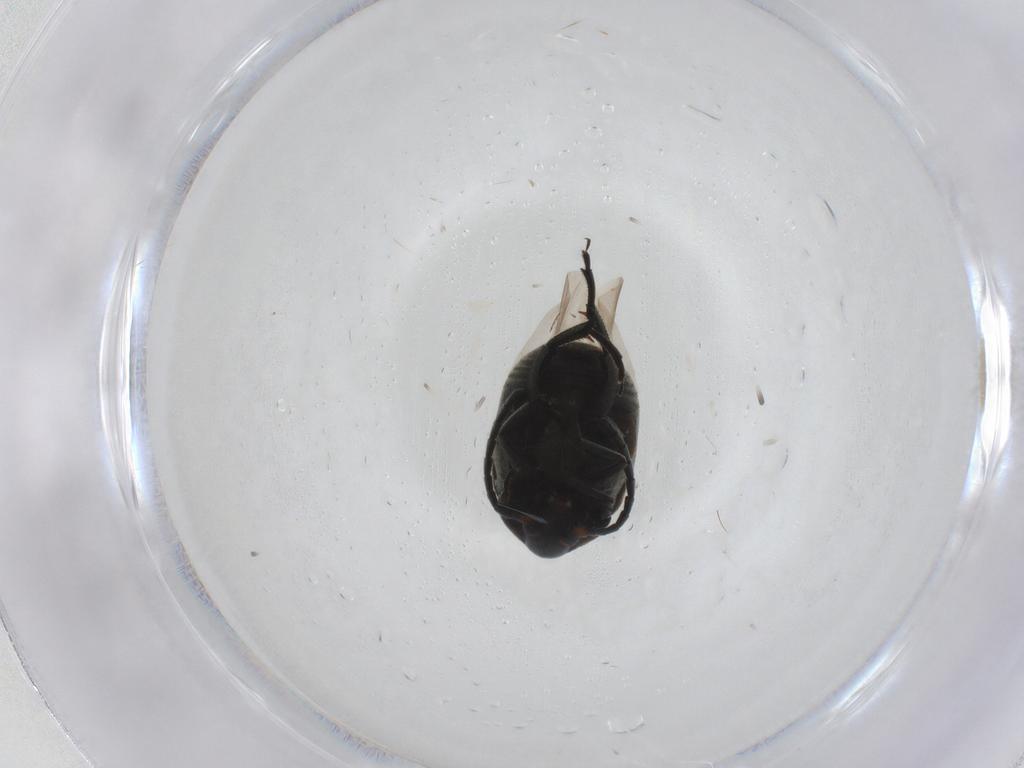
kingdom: Animalia
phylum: Arthropoda
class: Insecta
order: Coleoptera
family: Chrysomelidae
